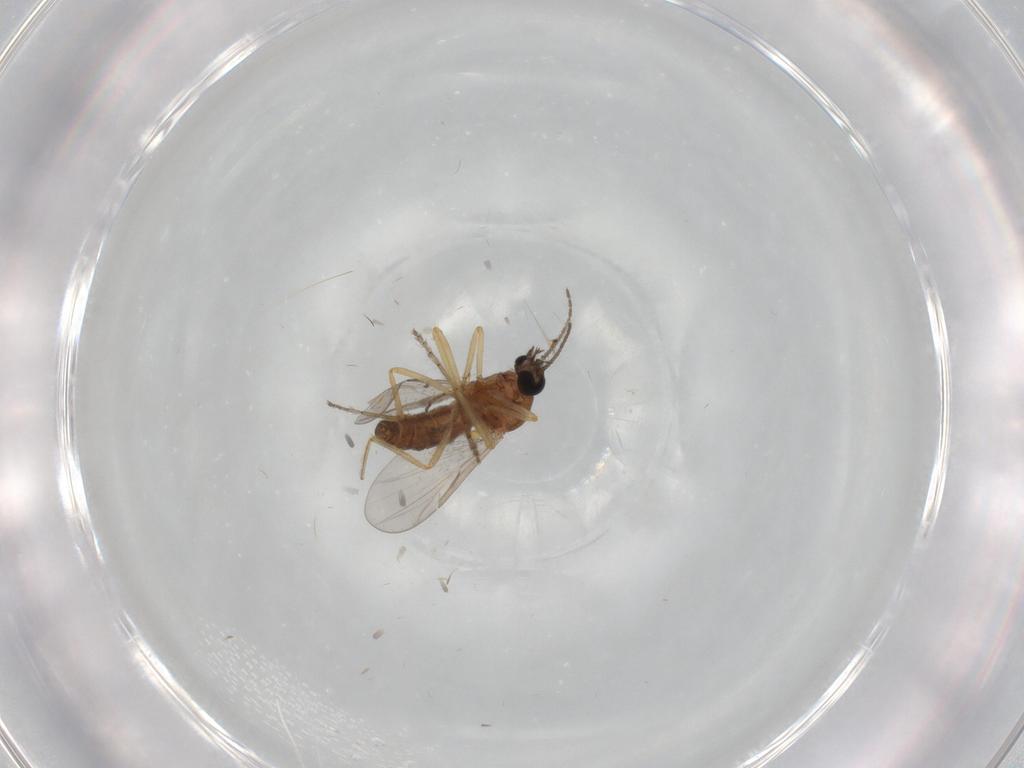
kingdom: Animalia
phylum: Arthropoda
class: Insecta
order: Diptera
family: Ceratopogonidae
